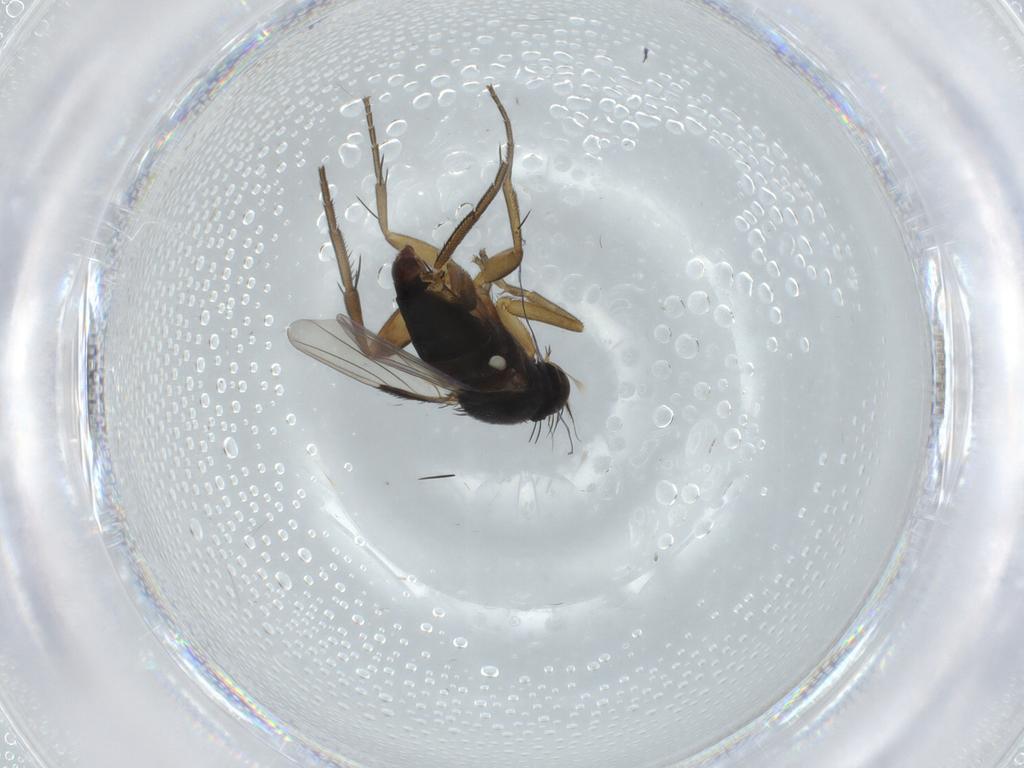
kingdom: Animalia
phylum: Arthropoda
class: Insecta
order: Diptera
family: Phoridae
